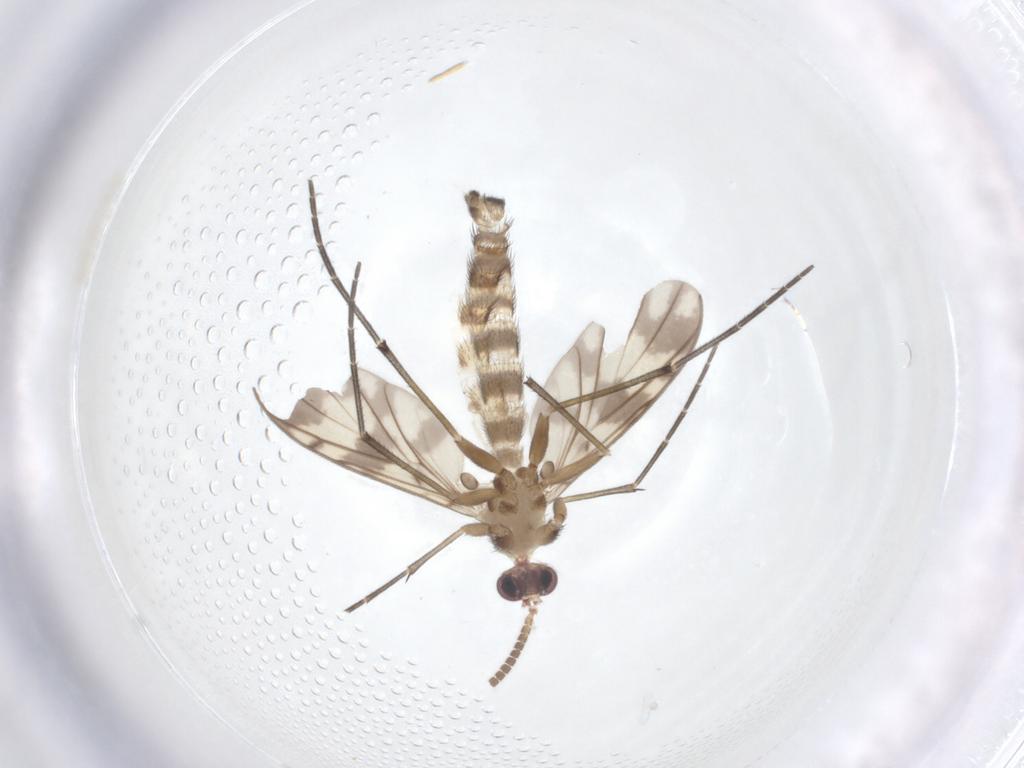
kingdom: Animalia
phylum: Arthropoda
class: Insecta
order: Diptera
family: Keroplatidae
